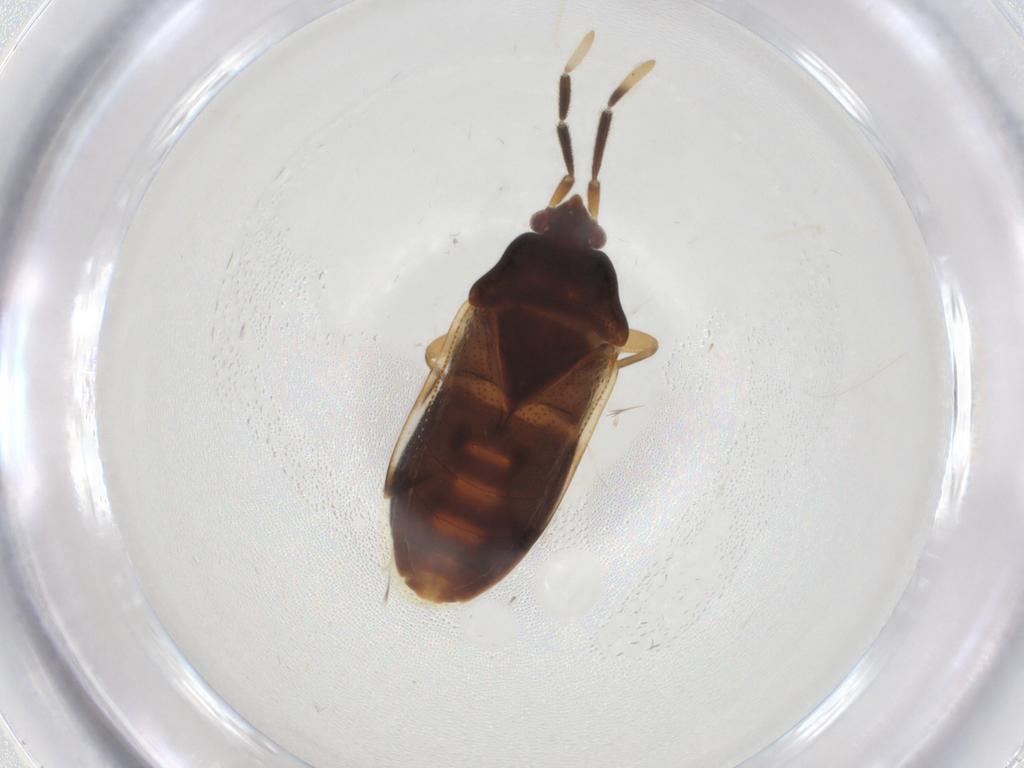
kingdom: Animalia
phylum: Arthropoda
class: Insecta
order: Hemiptera
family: Rhyparochromidae
